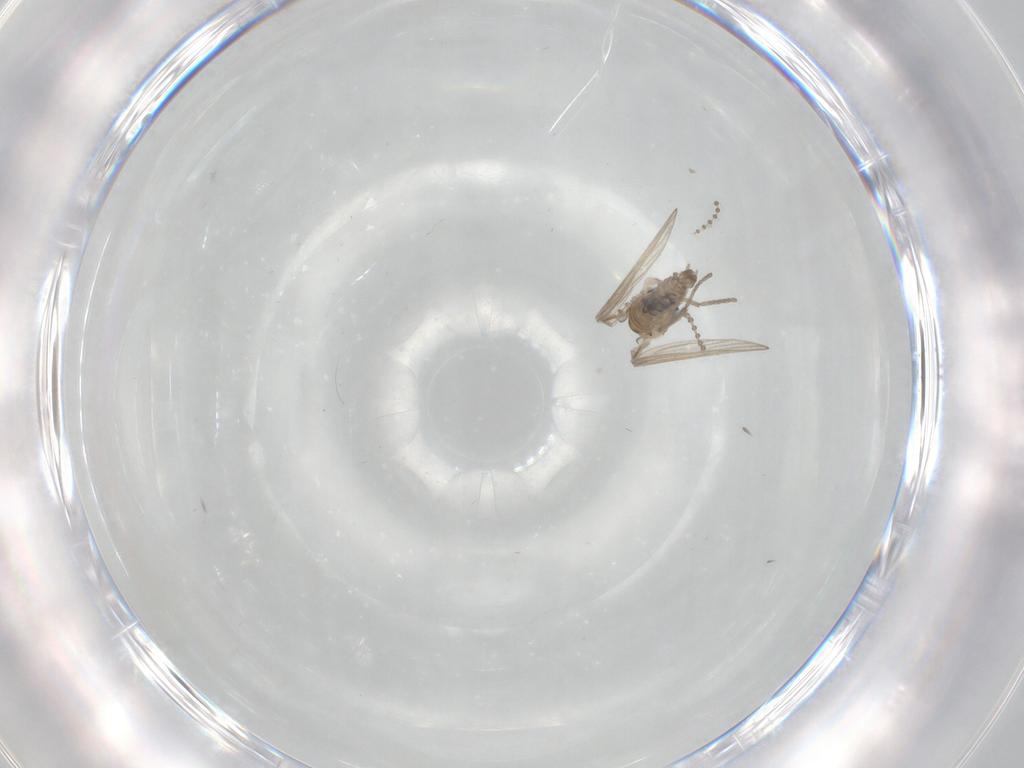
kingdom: Animalia
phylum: Arthropoda
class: Insecta
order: Diptera
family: Psychodidae
